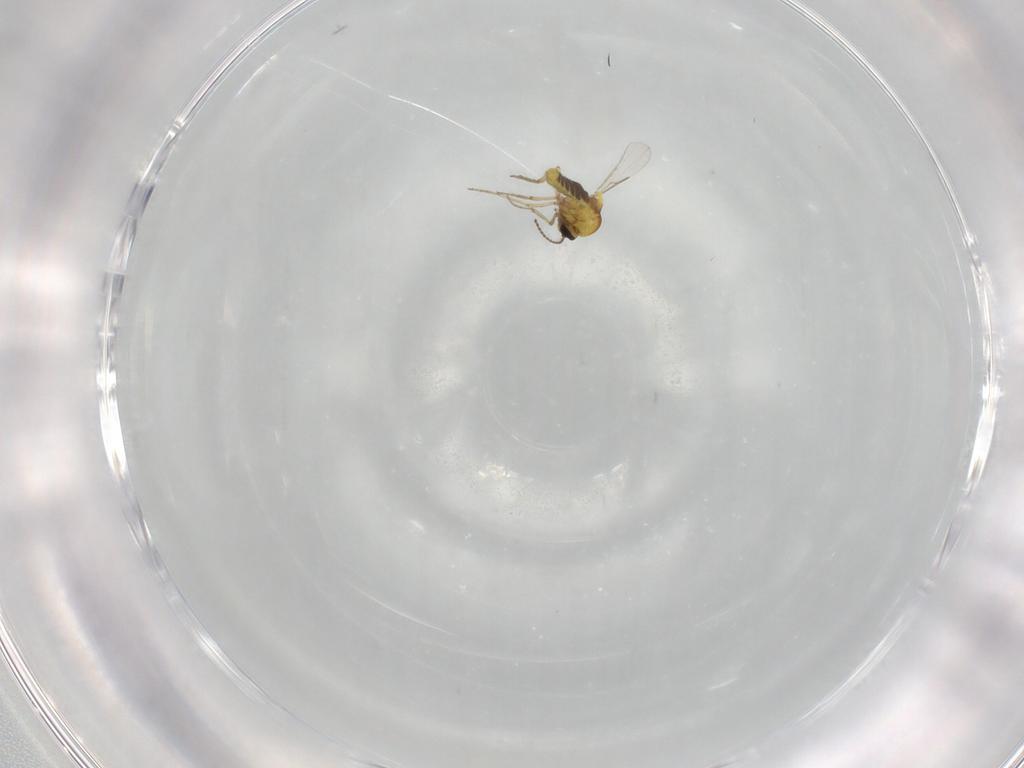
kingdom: Animalia
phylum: Arthropoda
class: Insecta
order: Diptera
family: Ceratopogonidae
